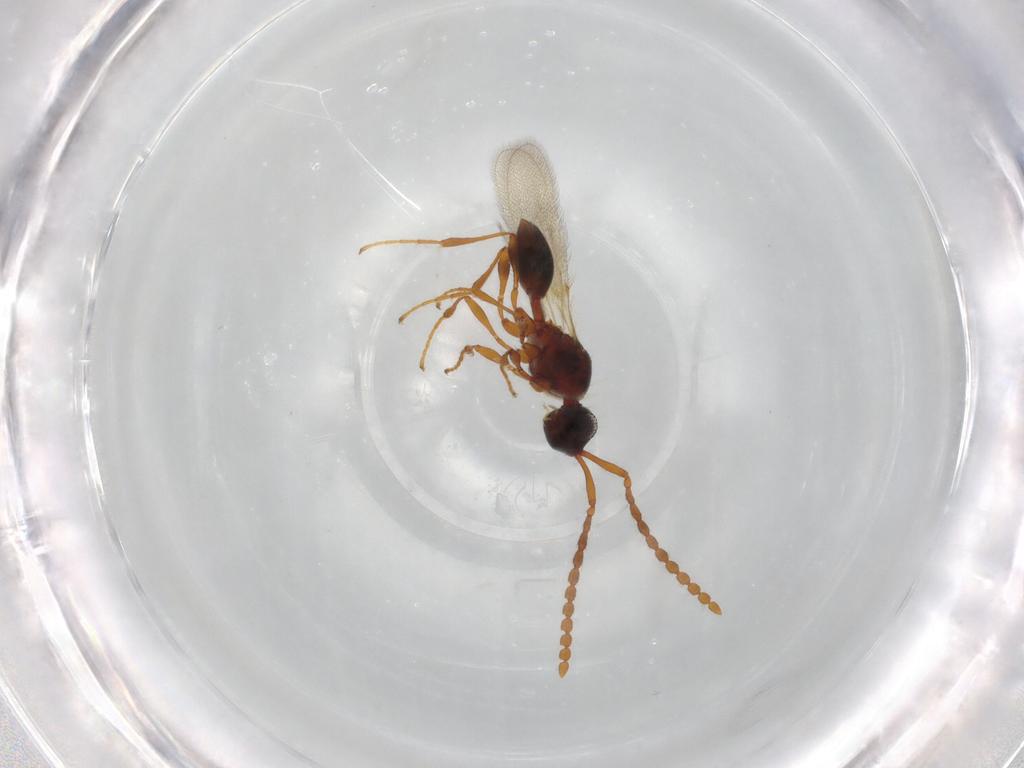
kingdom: Animalia
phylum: Arthropoda
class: Insecta
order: Hymenoptera
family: Diapriidae
